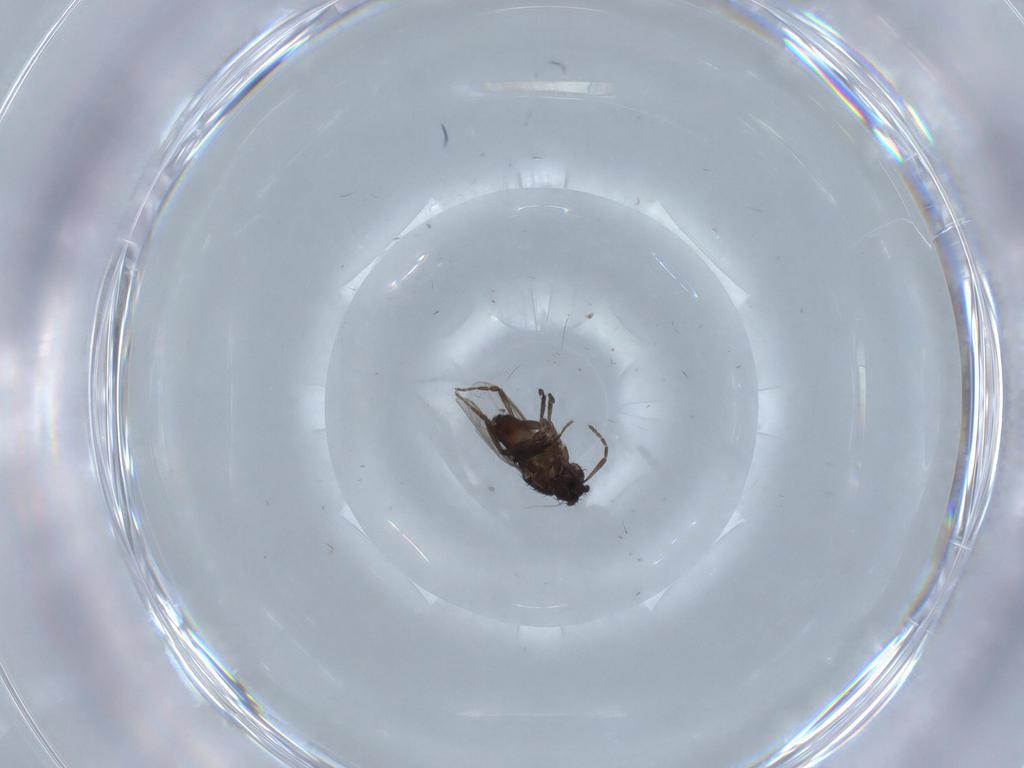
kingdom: Animalia
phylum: Arthropoda
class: Insecta
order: Diptera
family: Sphaeroceridae
